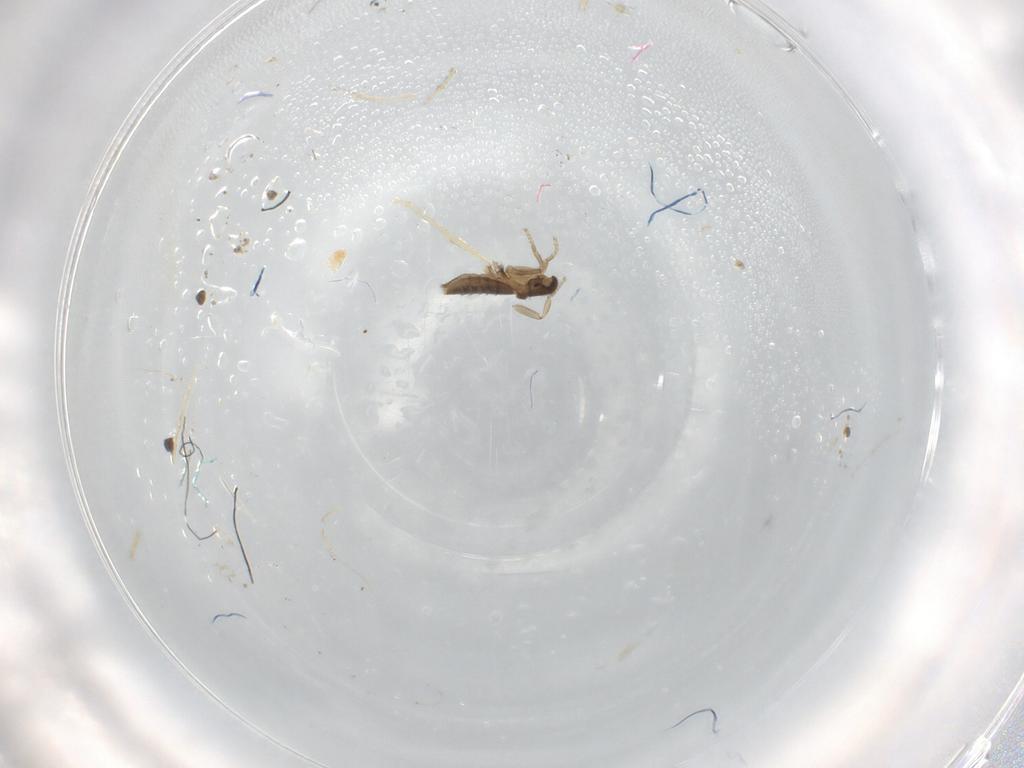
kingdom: Animalia
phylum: Arthropoda
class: Insecta
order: Diptera
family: Phoridae
